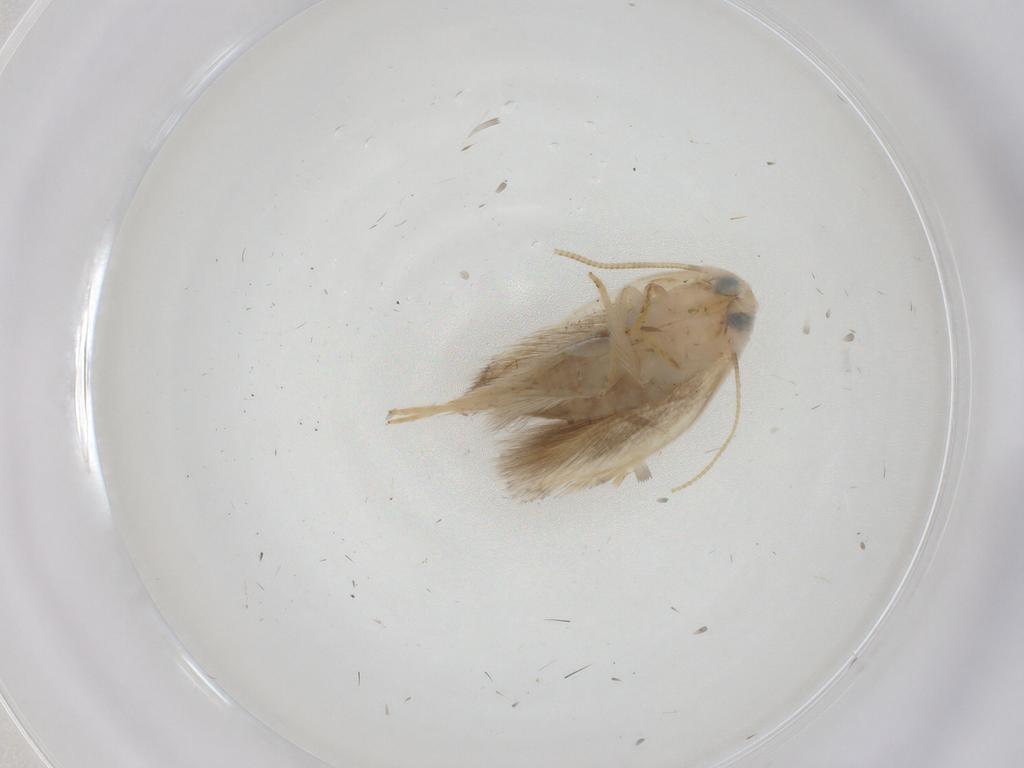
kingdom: Animalia
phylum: Arthropoda
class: Insecta
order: Lepidoptera
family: Opostegidae
